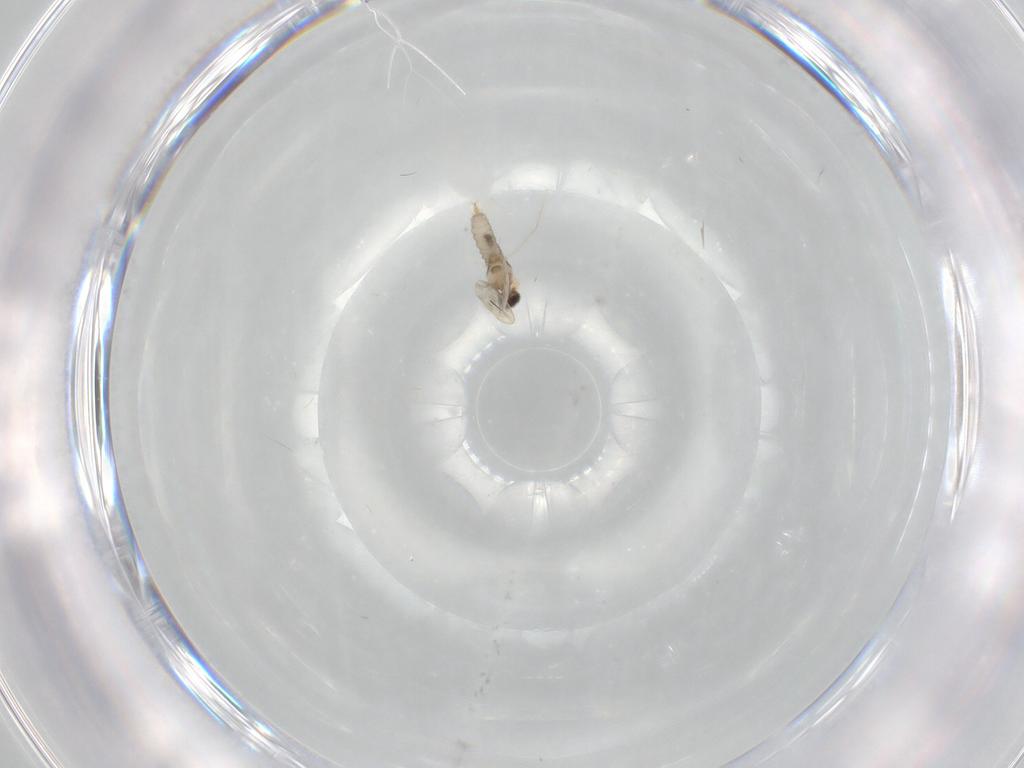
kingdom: Animalia
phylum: Arthropoda
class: Insecta
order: Diptera
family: Cecidomyiidae
